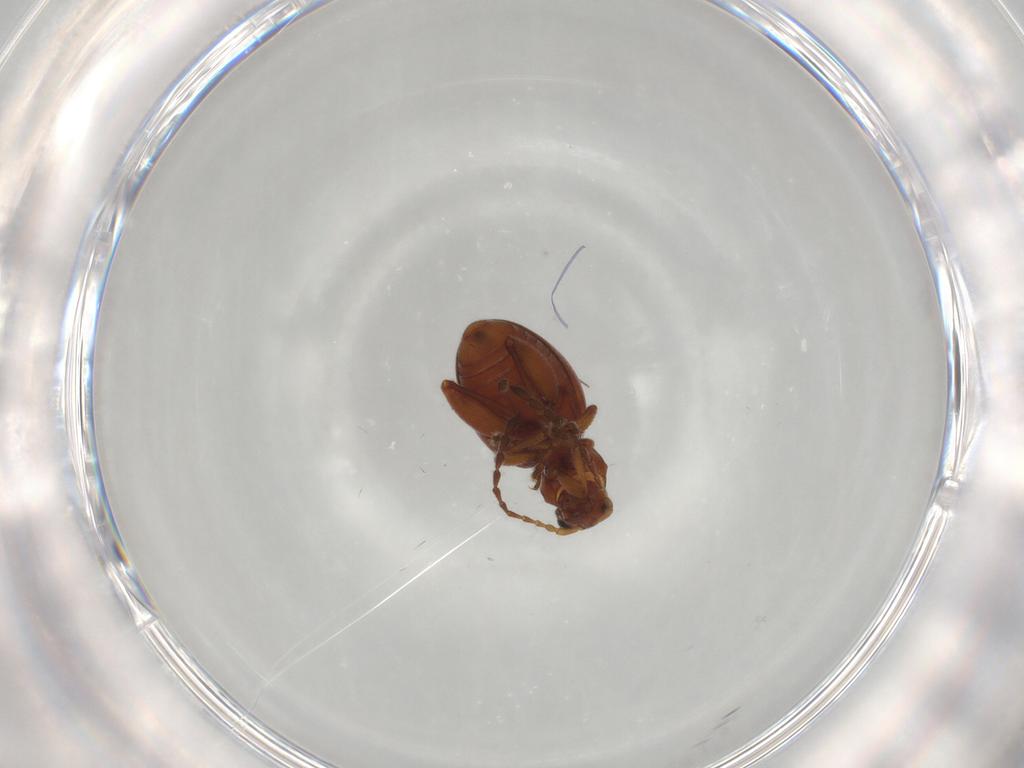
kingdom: Animalia
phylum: Arthropoda
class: Insecta
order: Coleoptera
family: Chrysomelidae
